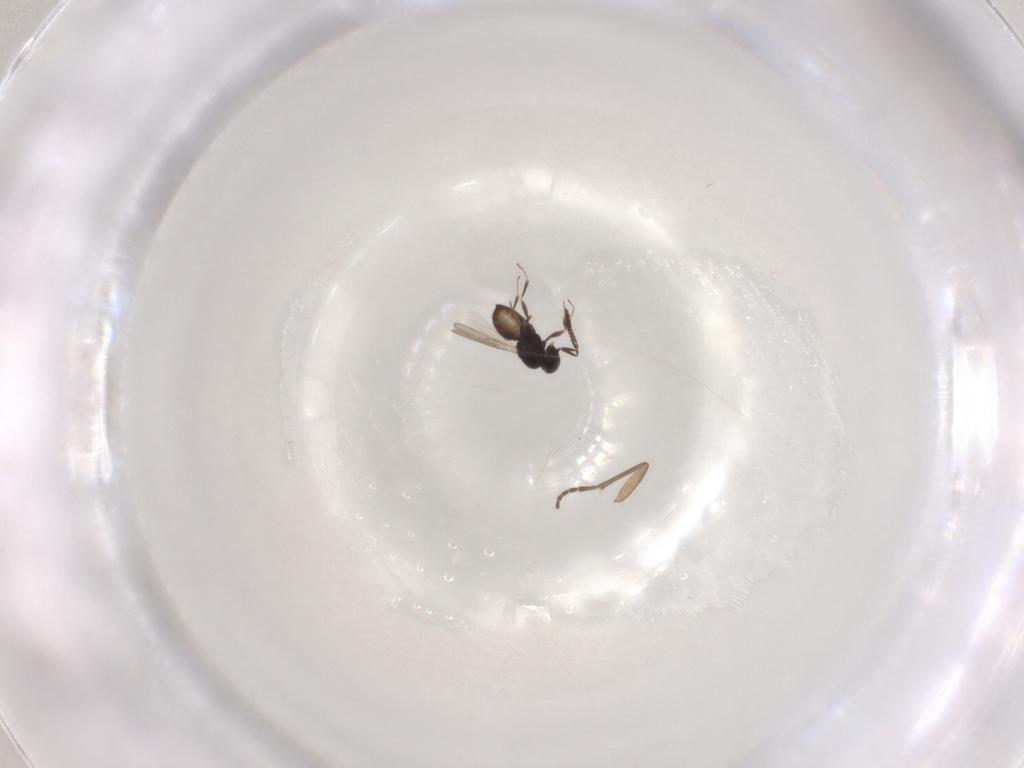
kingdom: Animalia
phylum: Arthropoda
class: Insecta
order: Hymenoptera
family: Scelionidae
